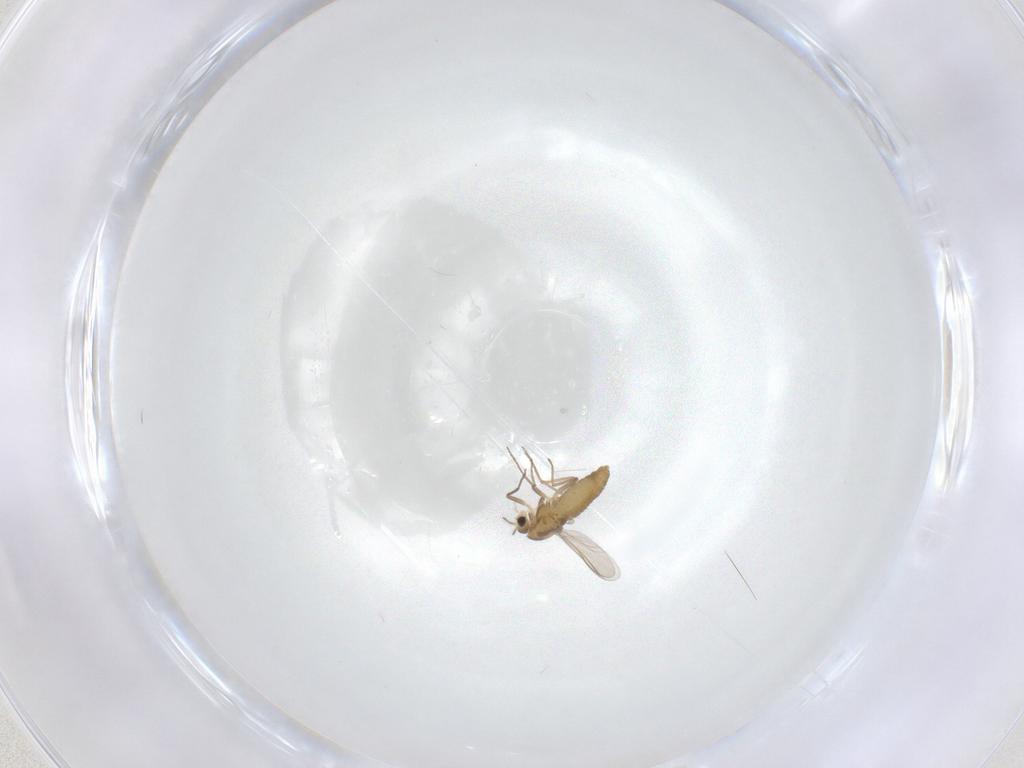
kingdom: Animalia
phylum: Arthropoda
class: Insecta
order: Diptera
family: Chironomidae
